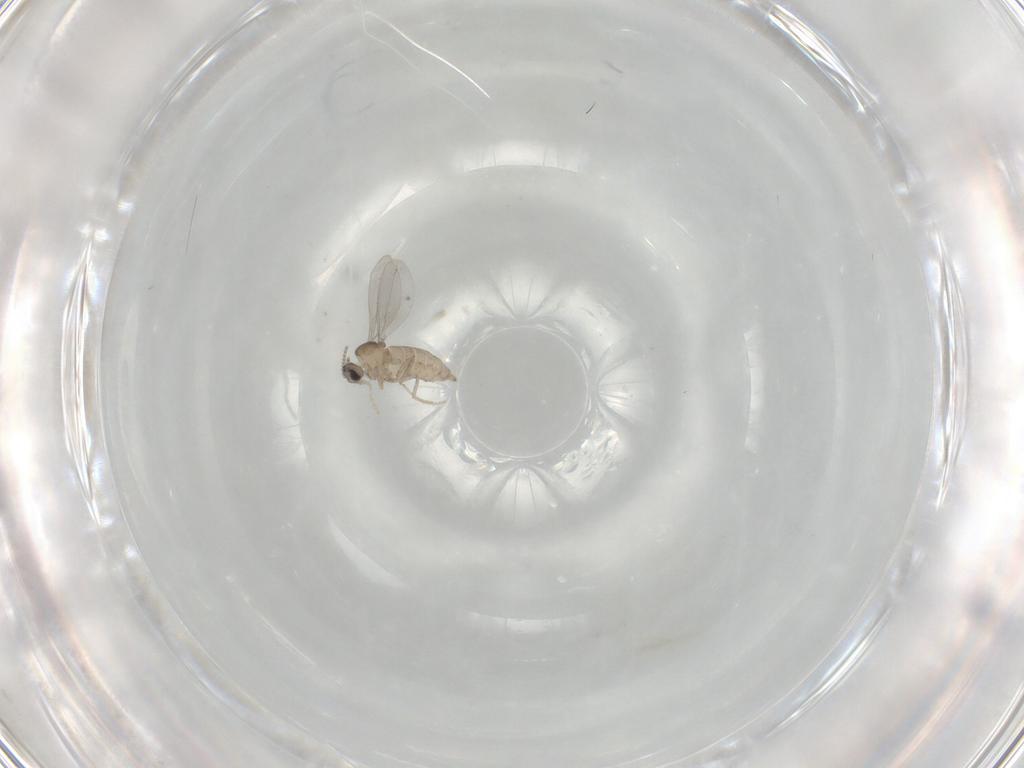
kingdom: Animalia
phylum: Arthropoda
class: Insecta
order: Diptera
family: Cecidomyiidae
